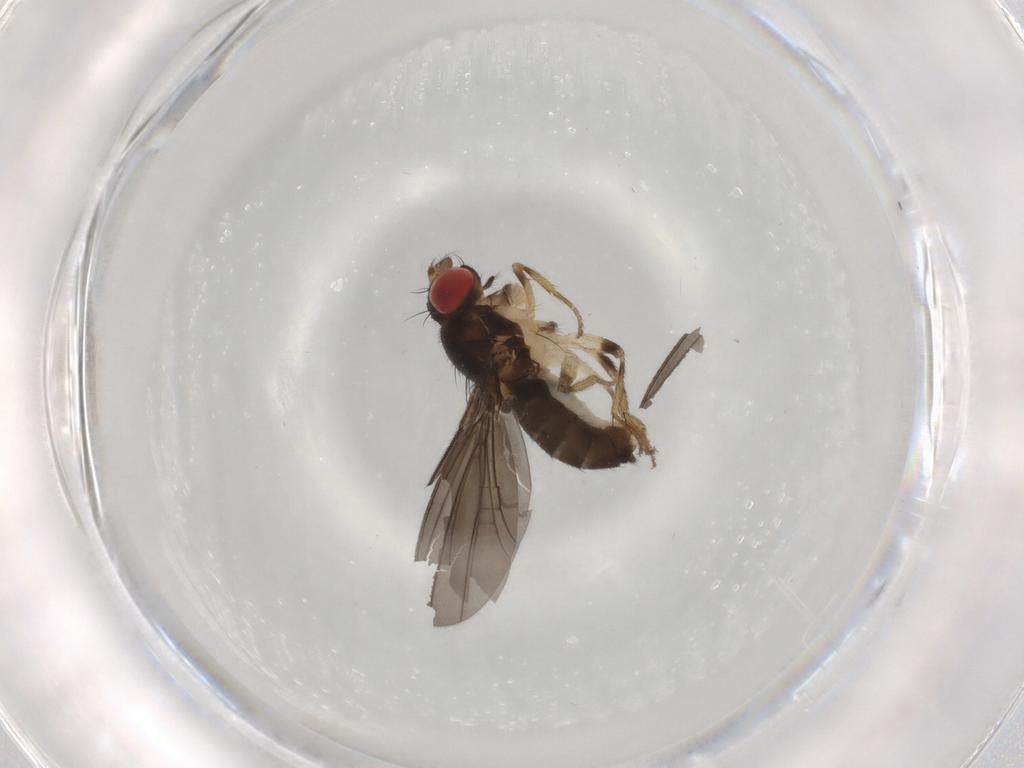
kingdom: Animalia
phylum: Arthropoda
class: Insecta
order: Diptera
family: Drosophilidae
